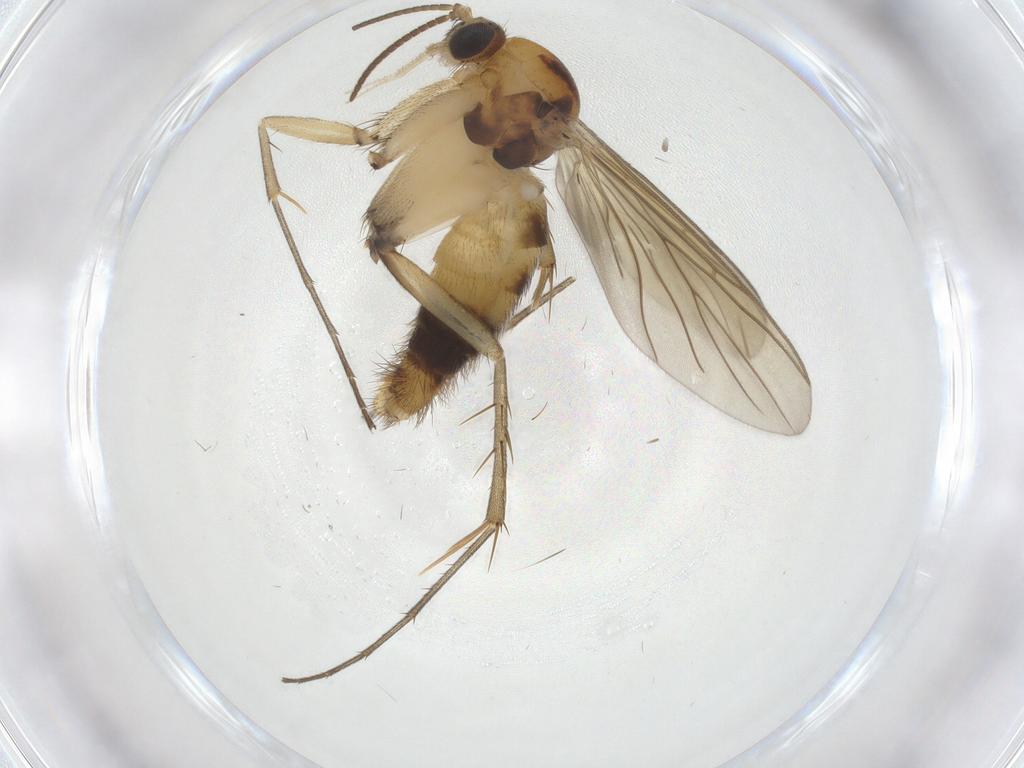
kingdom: Animalia
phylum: Arthropoda
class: Insecta
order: Diptera
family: Mycetophilidae
